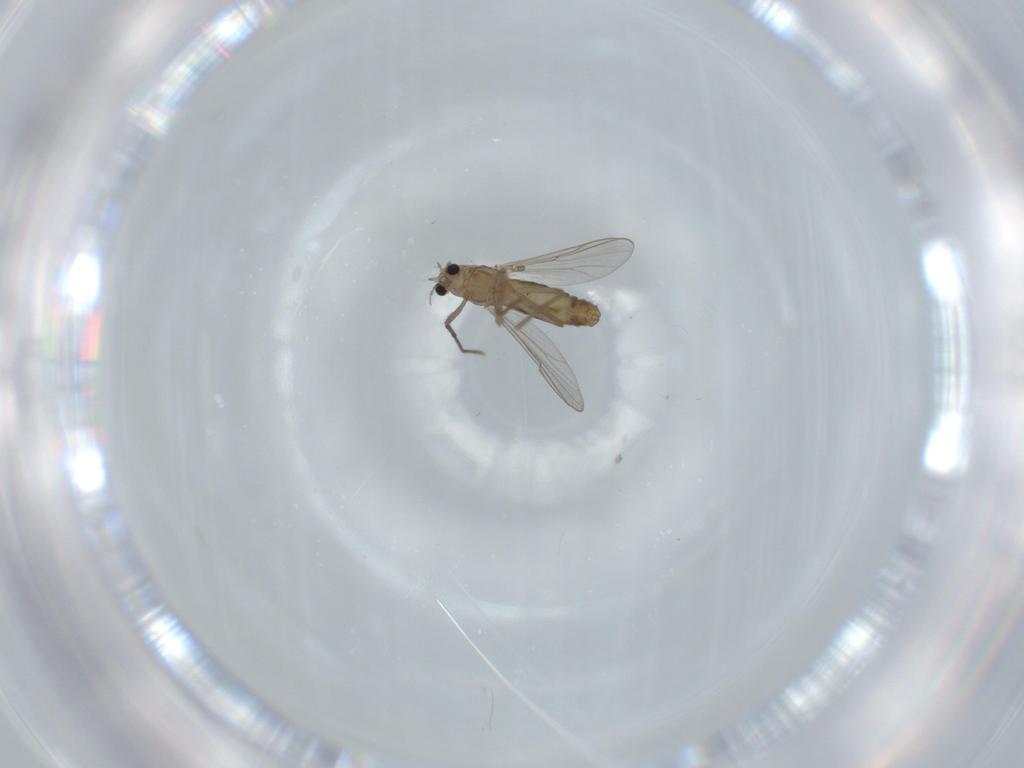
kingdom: Animalia
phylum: Arthropoda
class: Insecta
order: Diptera
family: Chironomidae
